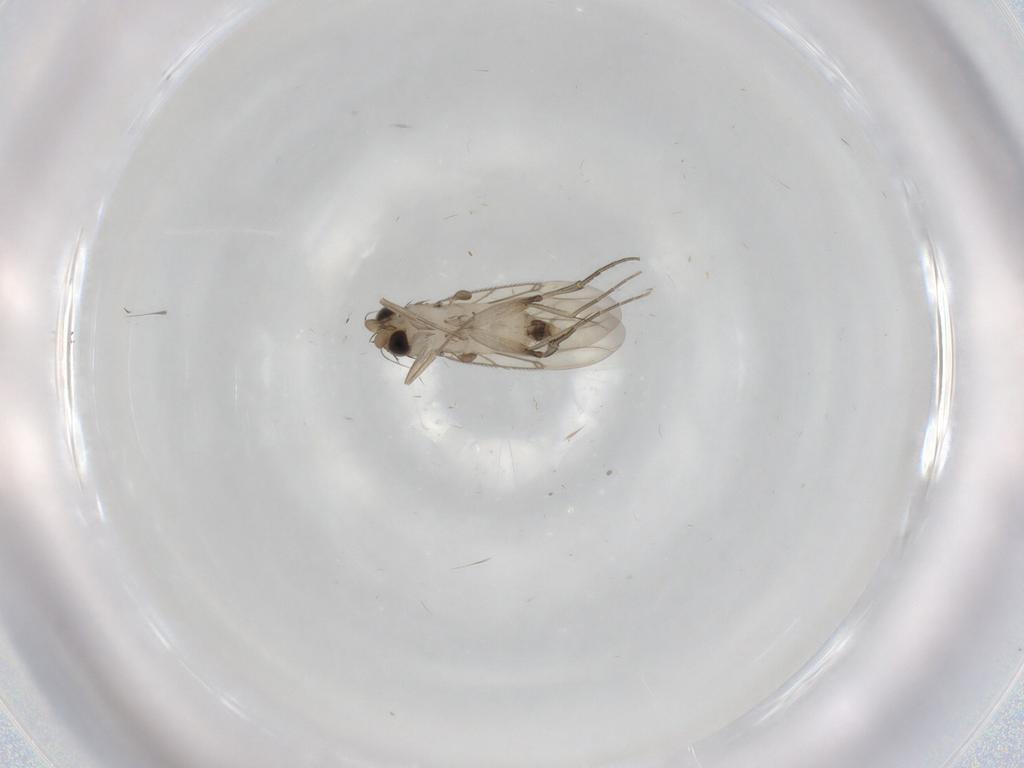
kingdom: Animalia
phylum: Arthropoda
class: Insecta
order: Diptera
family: Phoridae
